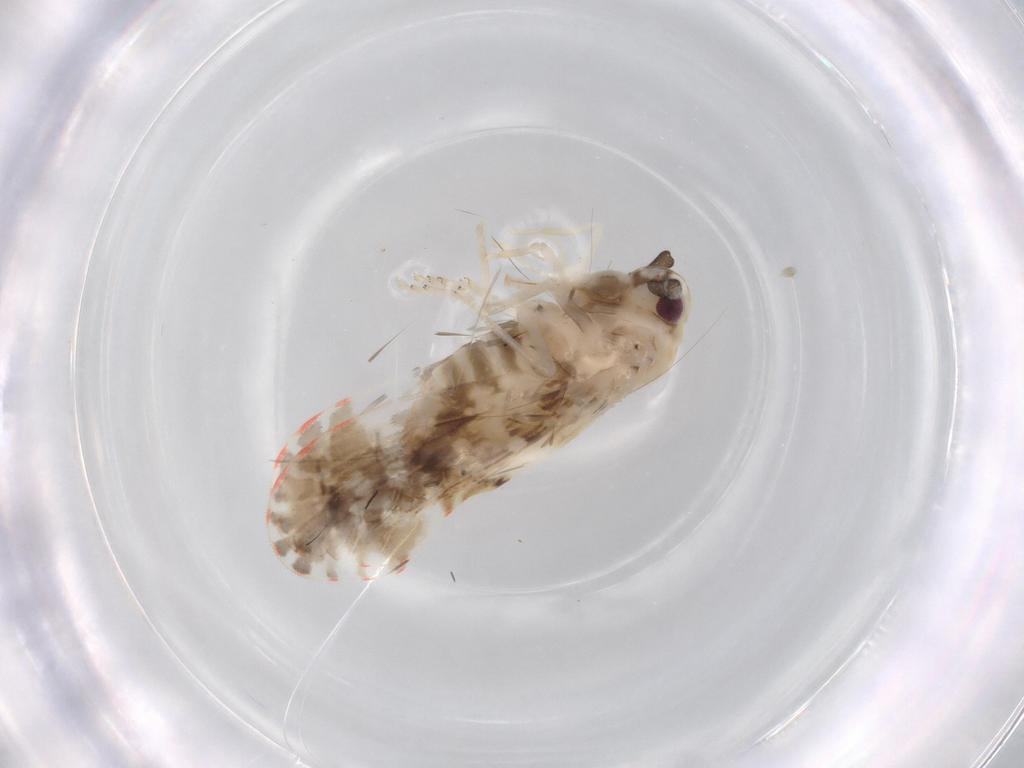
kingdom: Animalia
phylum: Arthropoda
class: Insecta
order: Hemiptera
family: Derbidae
